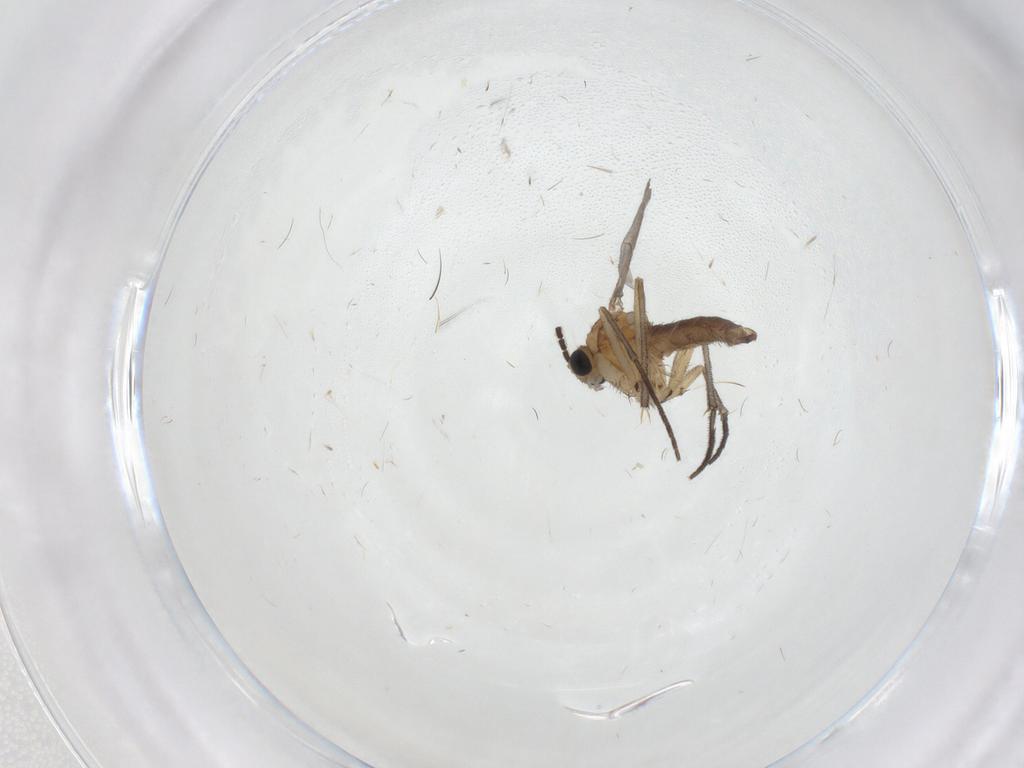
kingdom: Animalia
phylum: Arthropoda
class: Insecta
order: Diptera
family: Sciaridae
